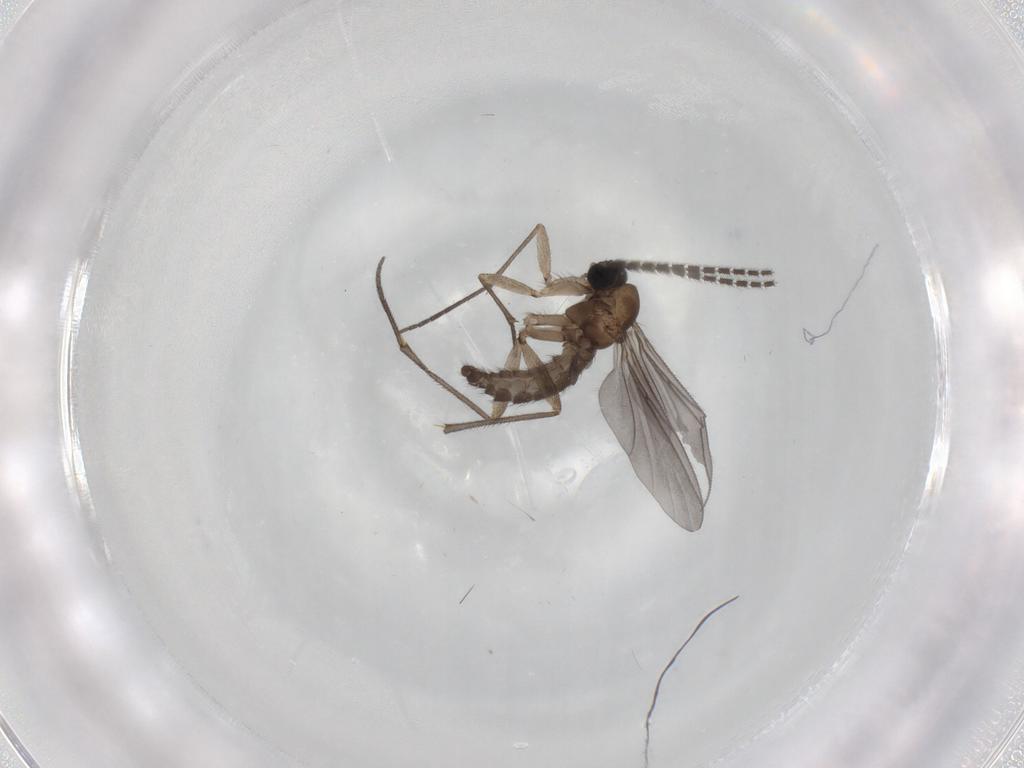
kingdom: Animalia
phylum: Arthropoda
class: Insecta
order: Diptera
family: Sciaridae
